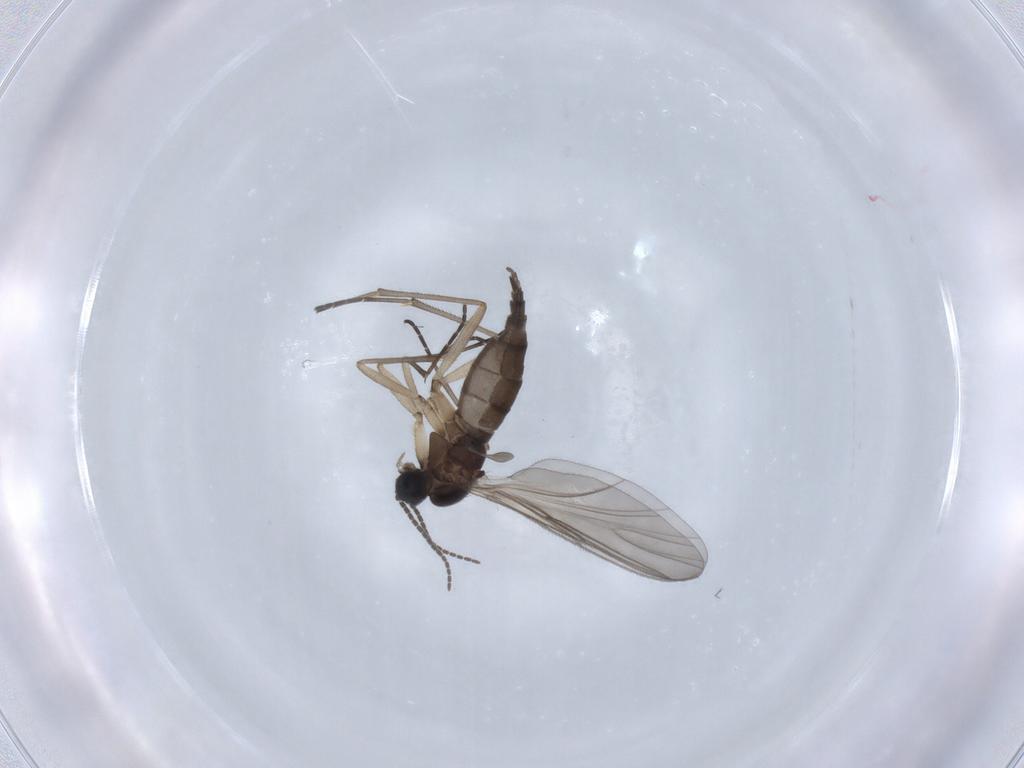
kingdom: Animalia
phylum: Arthropoda
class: Insecta
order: Diptera
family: Sciaridae
